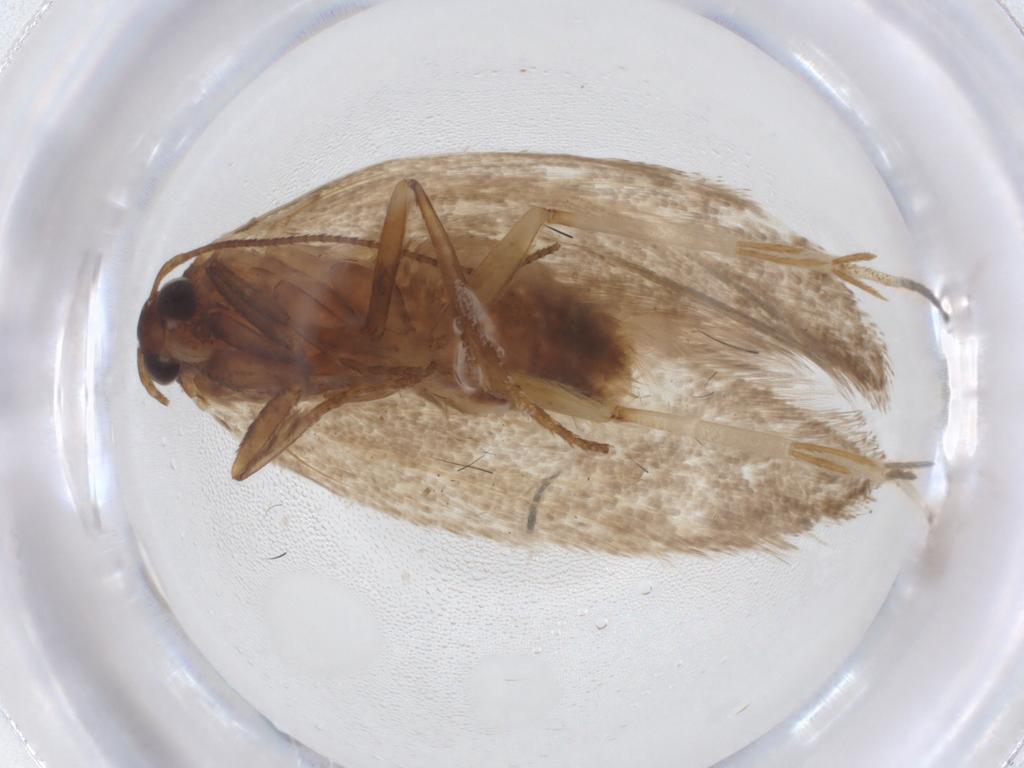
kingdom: Animalia
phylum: Arthropoda
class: Insecta
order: Lepidoptera
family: Cosmopterigidae
